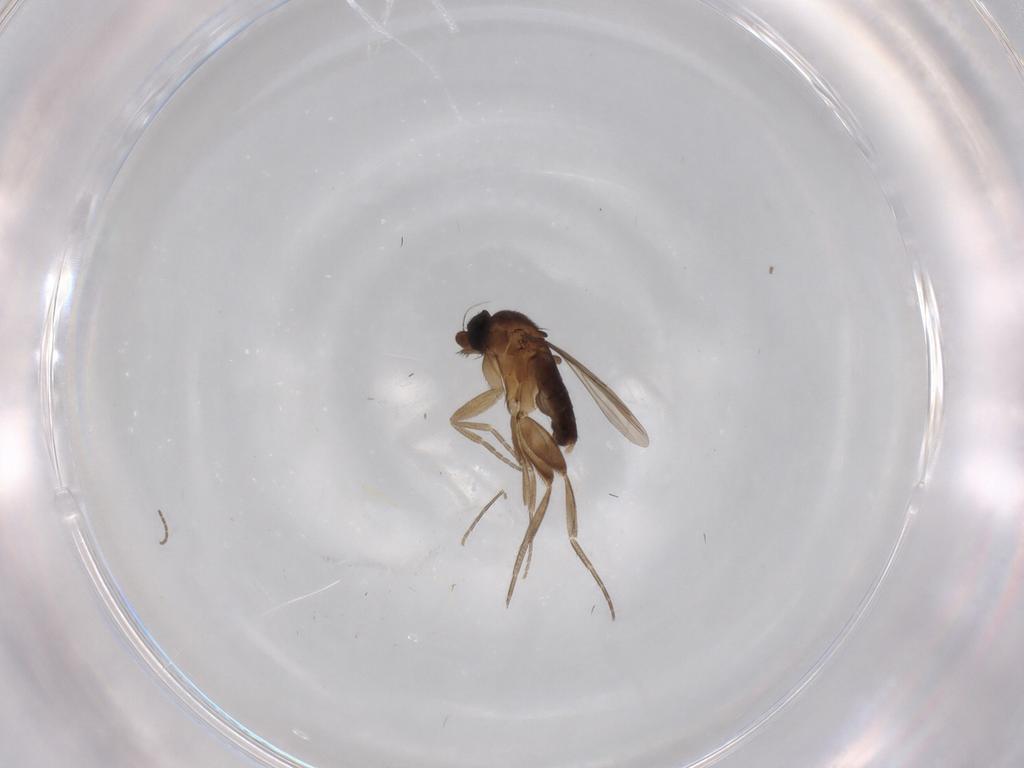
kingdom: Animalia
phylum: Arthropoda
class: Insecta
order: Diptera
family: Phoridae
